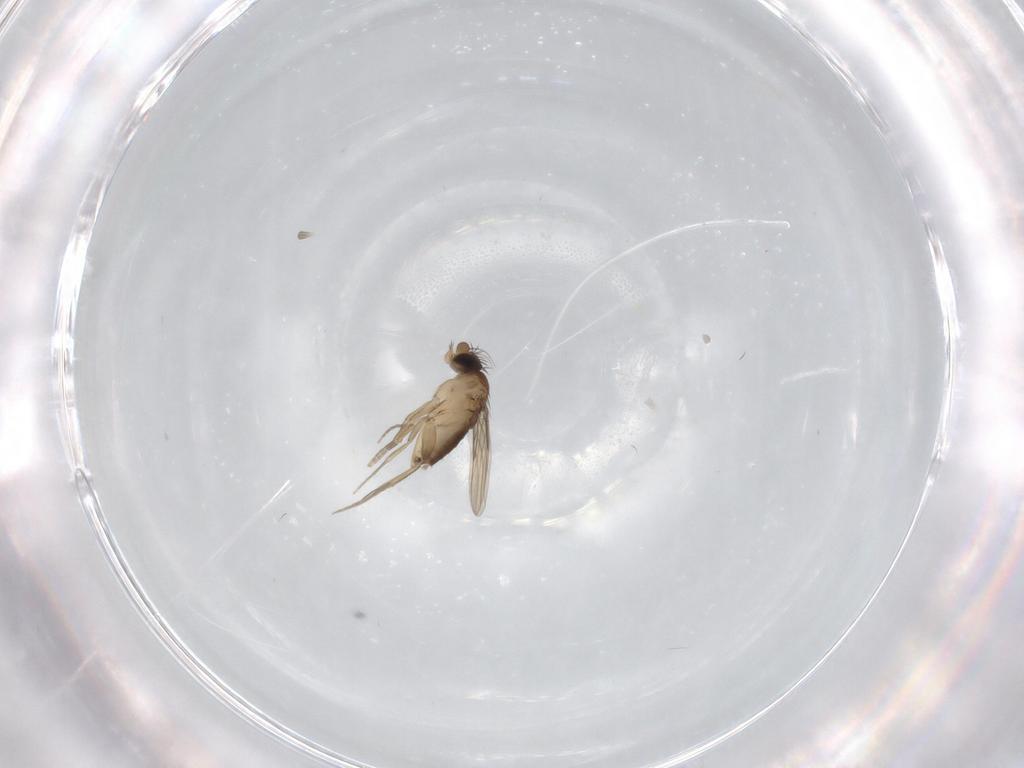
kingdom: Animalia
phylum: Arthropoda
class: Insecta
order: Diptera
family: Phoridae
